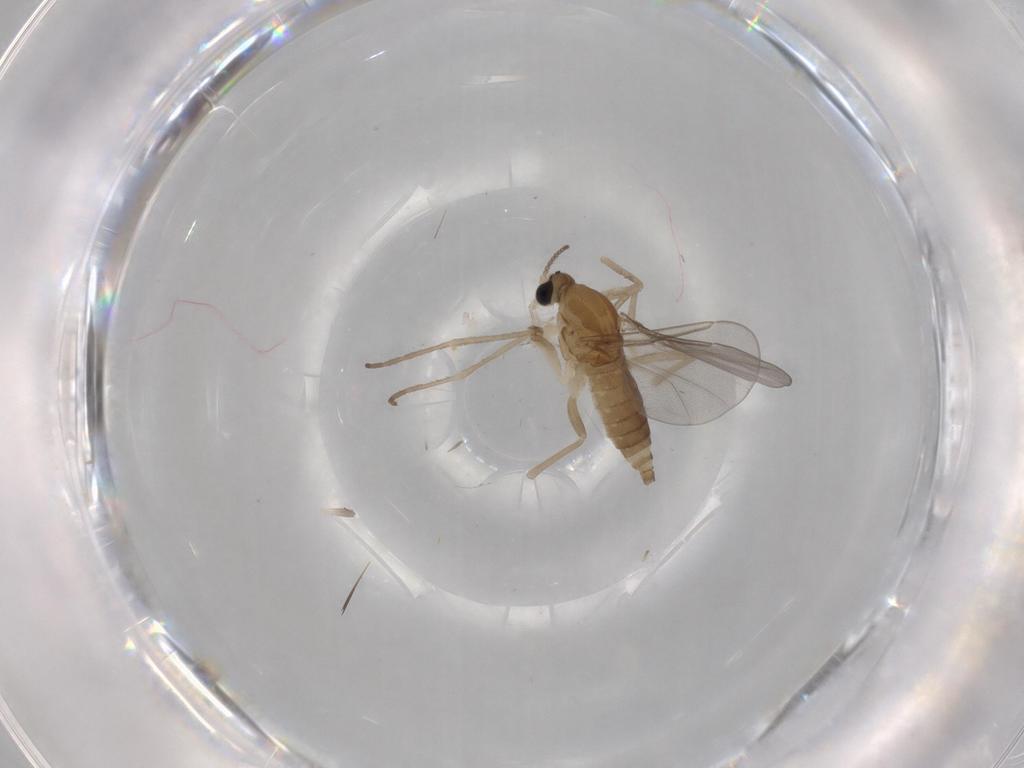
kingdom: Animalia
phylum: Arthropoda
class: Insecta
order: Diptera
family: Cecidomyiidae
